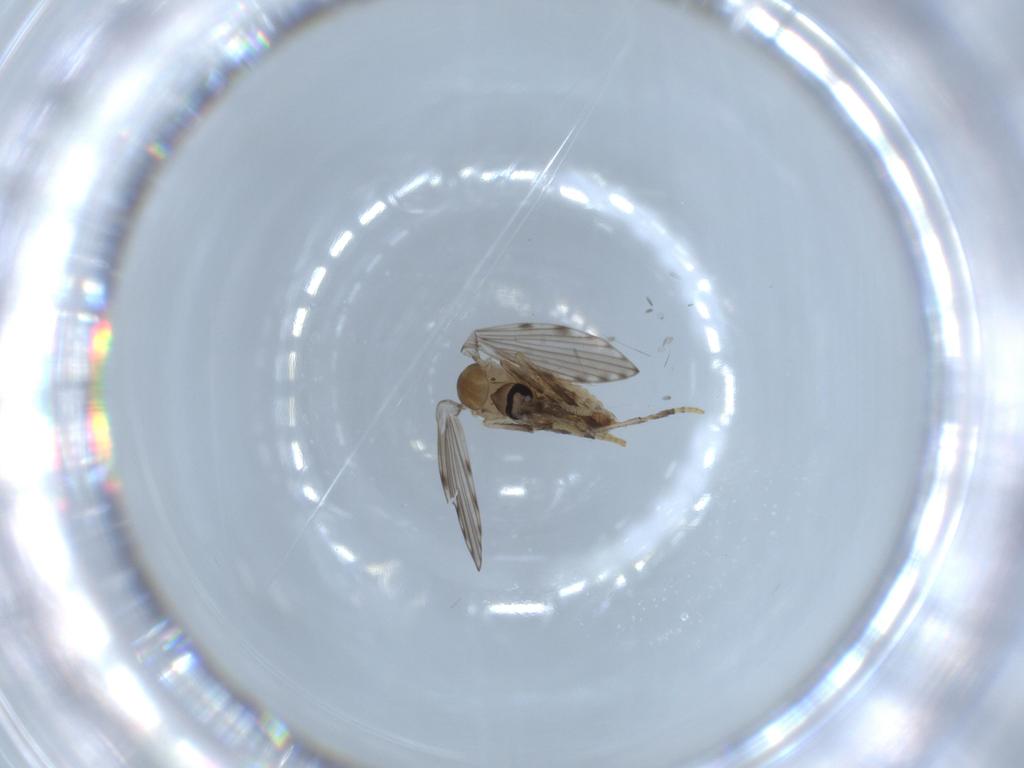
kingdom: Animalia
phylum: Arthropoda
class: Insecta
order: Diptera
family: Psychodidae
